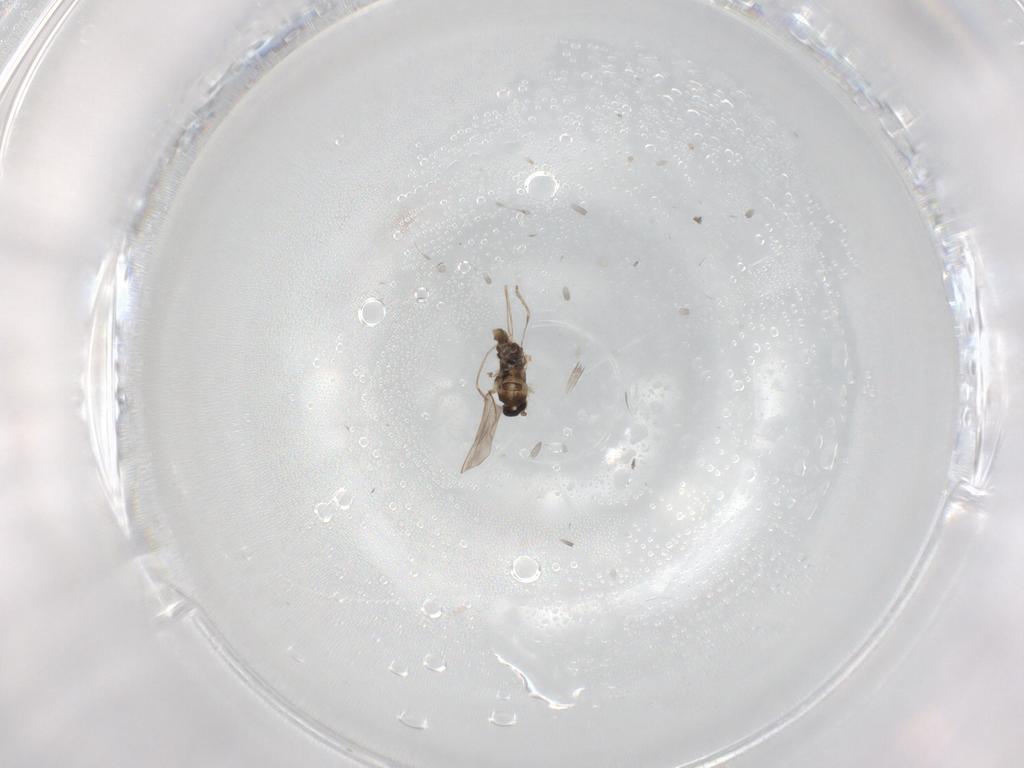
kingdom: Animalia
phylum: Arthropoda
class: Insecta
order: Diptera
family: Cecidomyiidae
